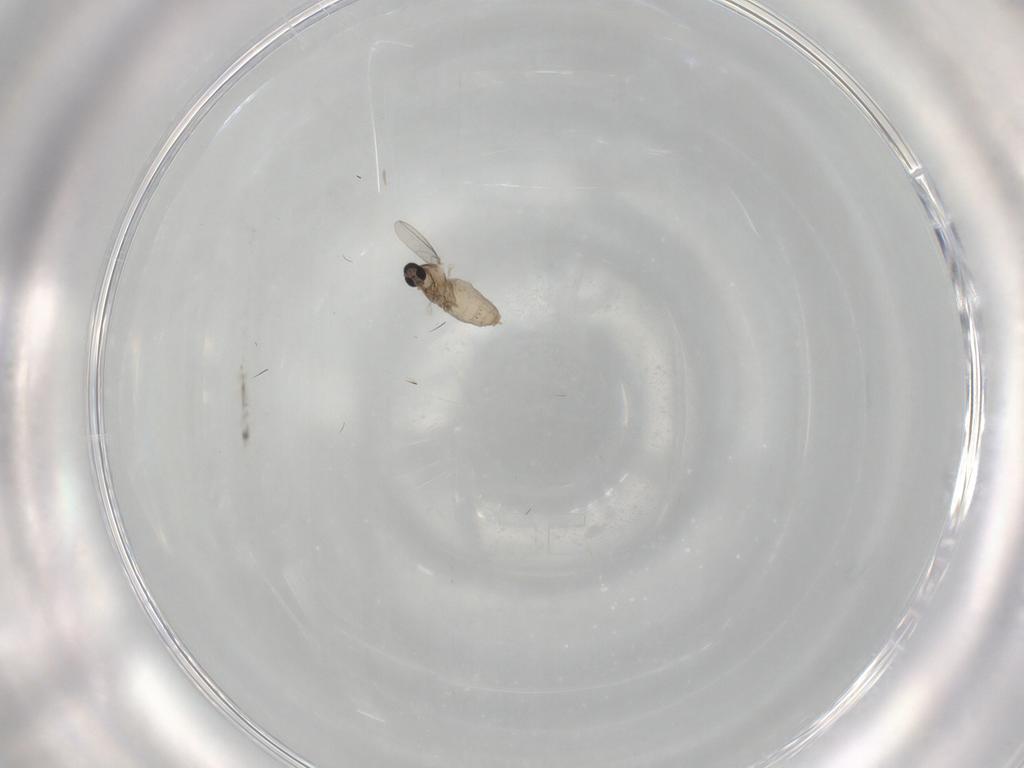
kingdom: Animalia
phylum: Arthropoda
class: Insecta
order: Diptera
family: Cecidomyiidae
